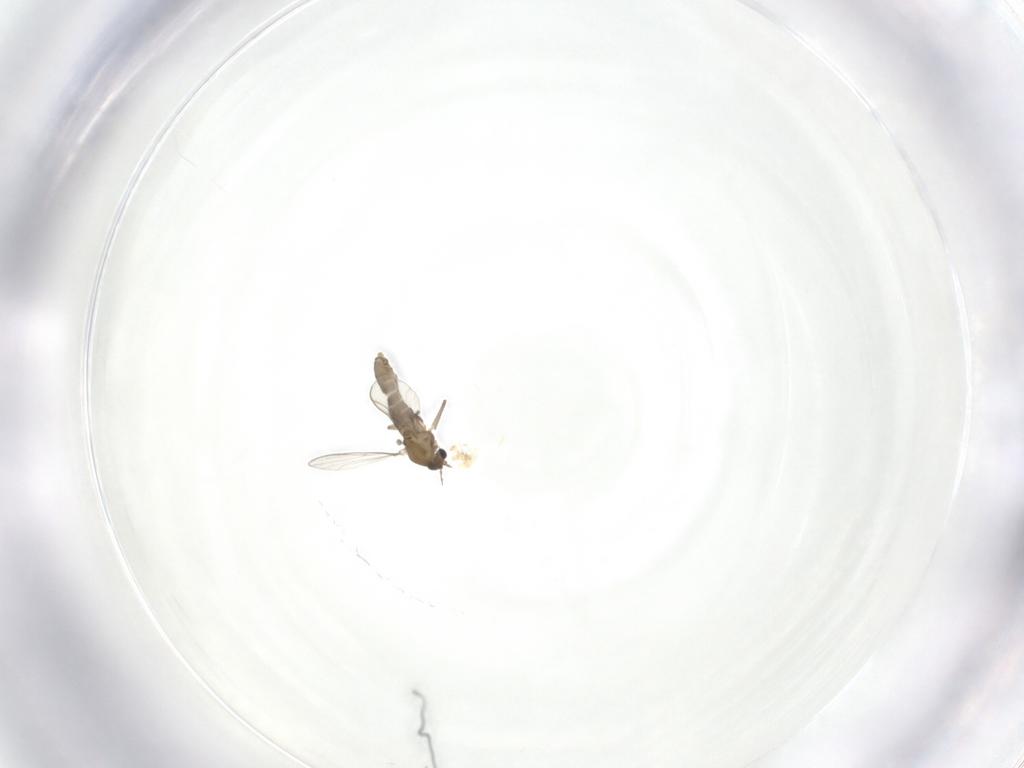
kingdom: Animalia
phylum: Arthropoda
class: Insecta
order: Diptera
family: Chironomidae
